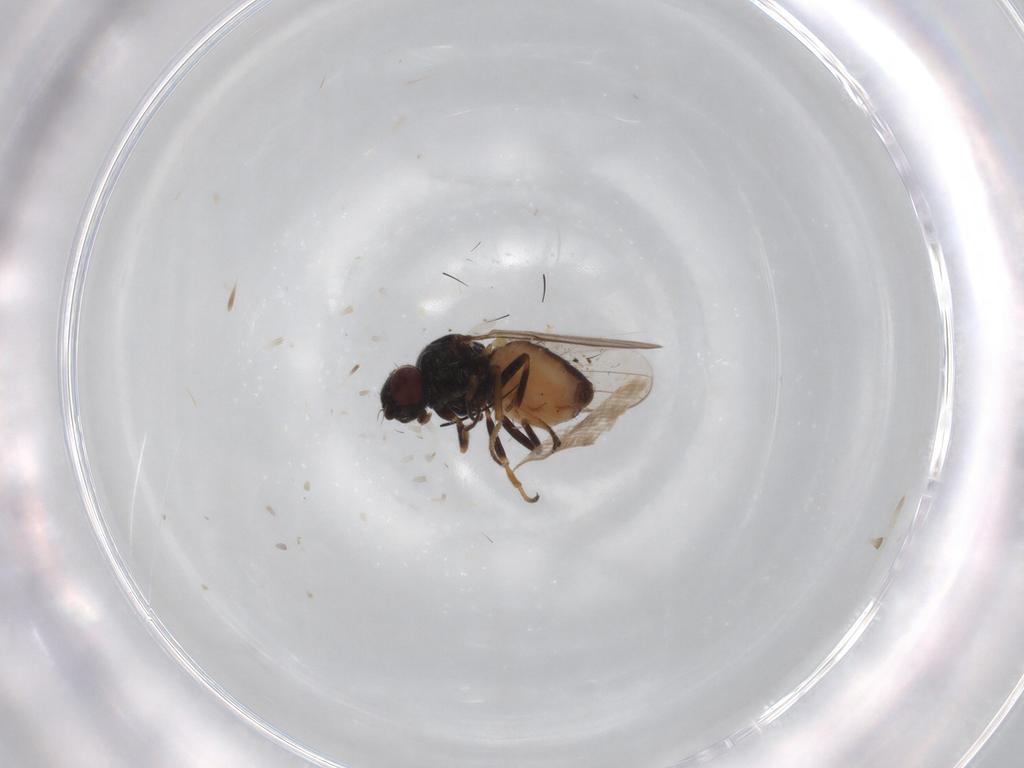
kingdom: Animalia
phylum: Arthropoda
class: Insecta
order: Diptera
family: Chloropidae
